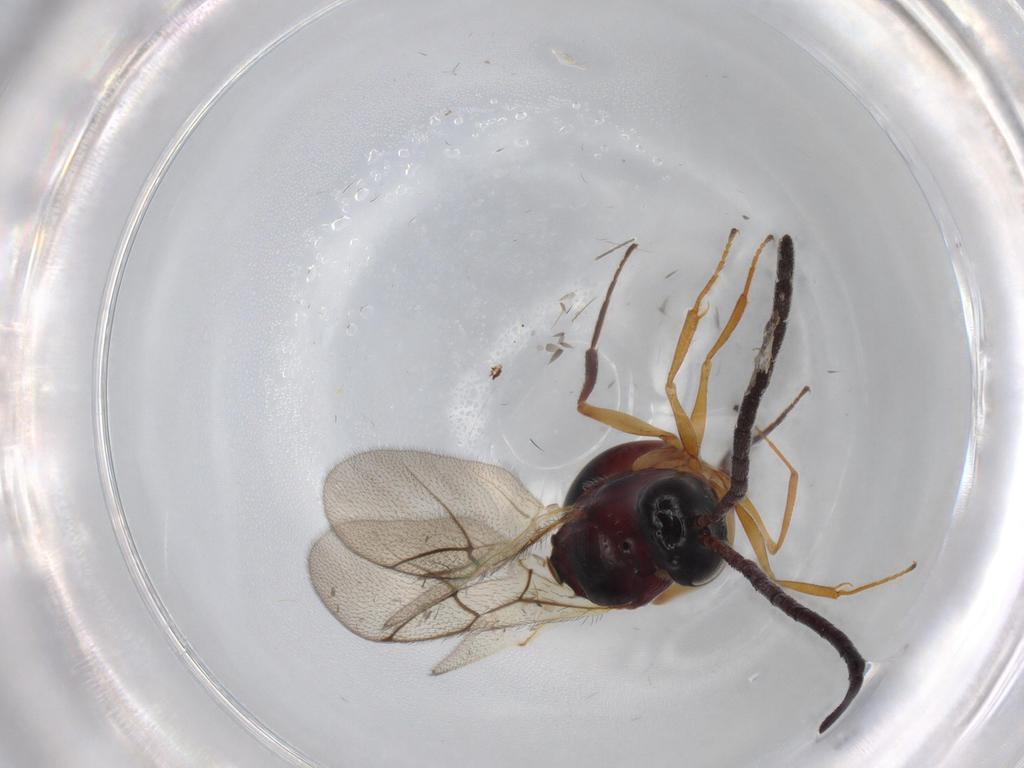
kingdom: Animalia
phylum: Arthropoda
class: Insecta
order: Hymenoptera
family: Figitidae
